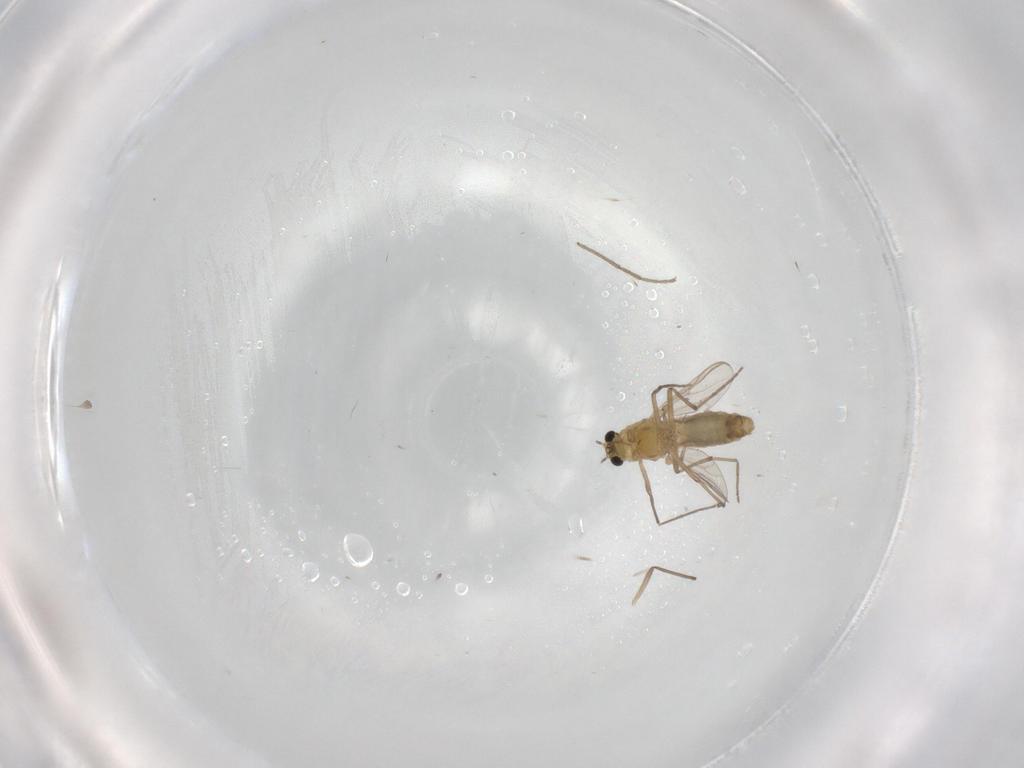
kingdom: Animalia
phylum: Arthropoda
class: Insecta
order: Diptera
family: Chironomidae
